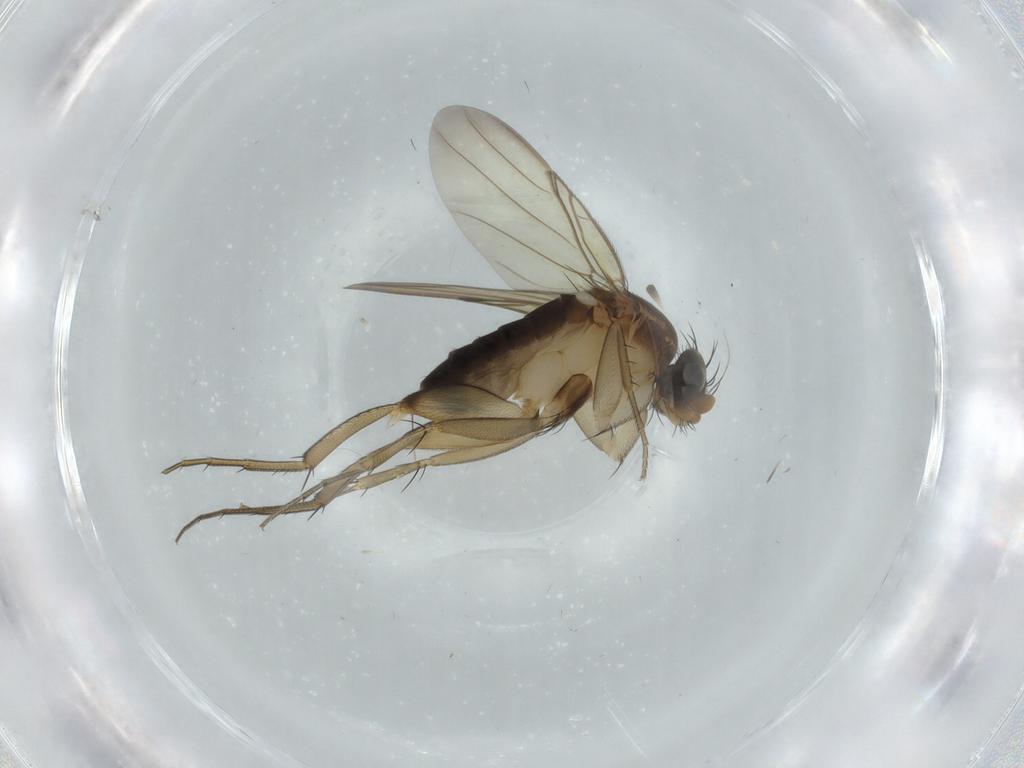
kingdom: Animalia
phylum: Arthropoda
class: Insecta
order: Diptera
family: Phoridae
